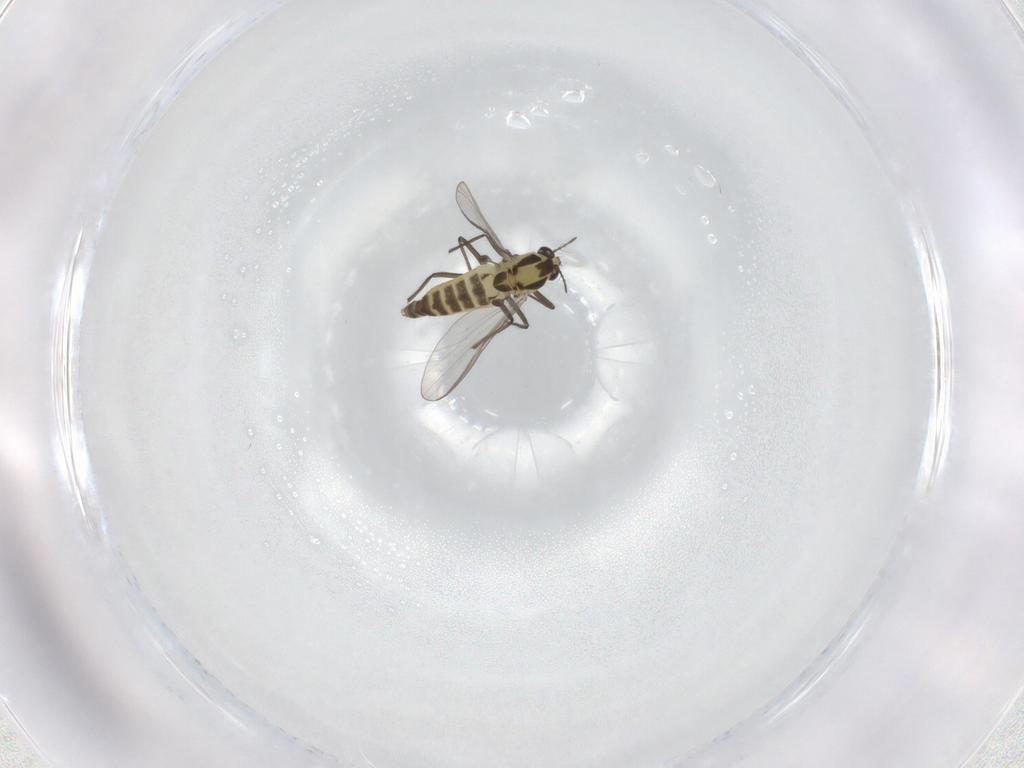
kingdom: Animalia
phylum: Arthropoda
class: Insecta
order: Diptera
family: Chironomidae
